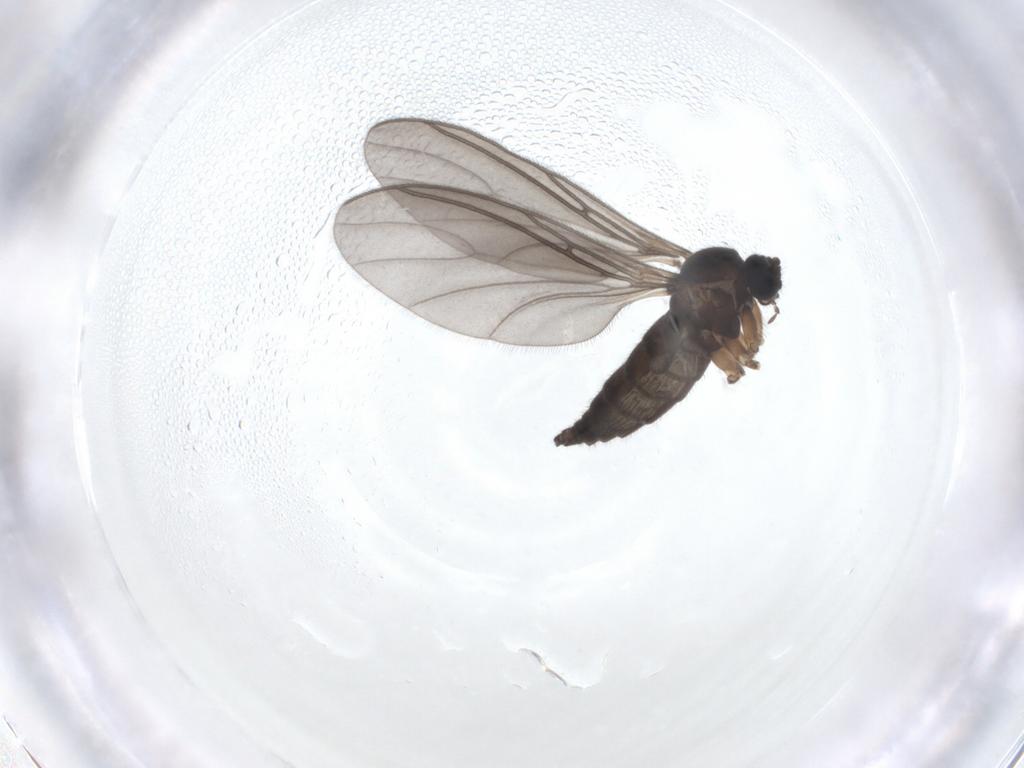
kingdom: Animalia
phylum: Arthropoda
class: Insecta
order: Diptera
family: Sciaridae
